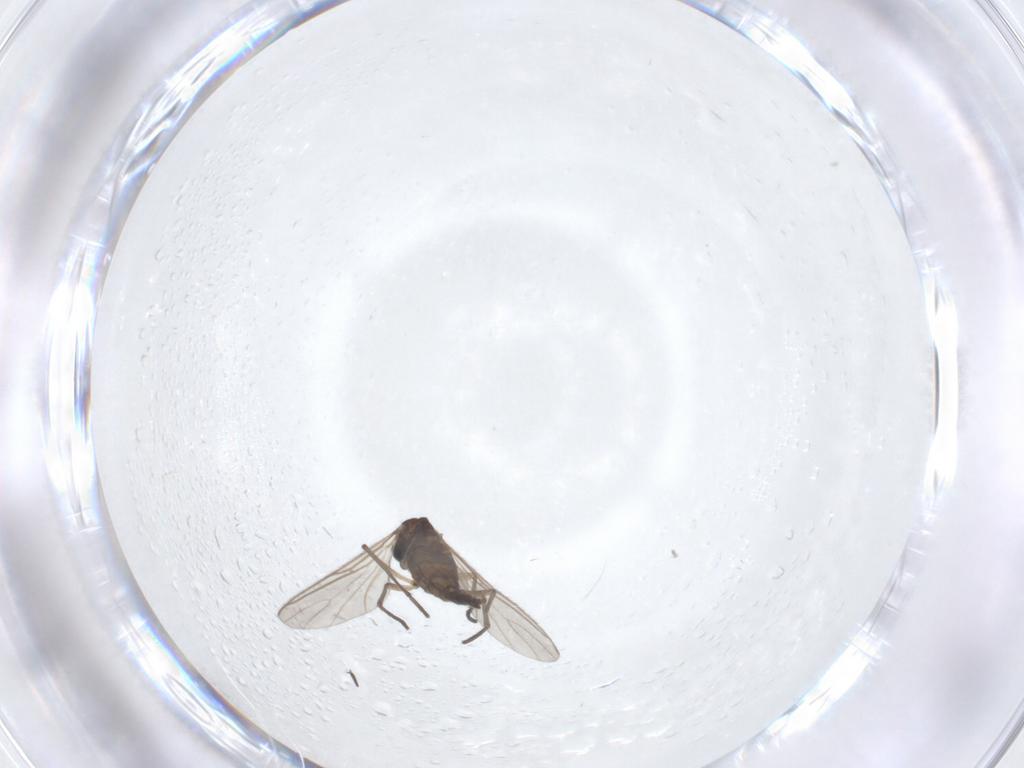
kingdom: Animalia
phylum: Arthropoda
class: Insecta
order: Diptera
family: Sciaridae
